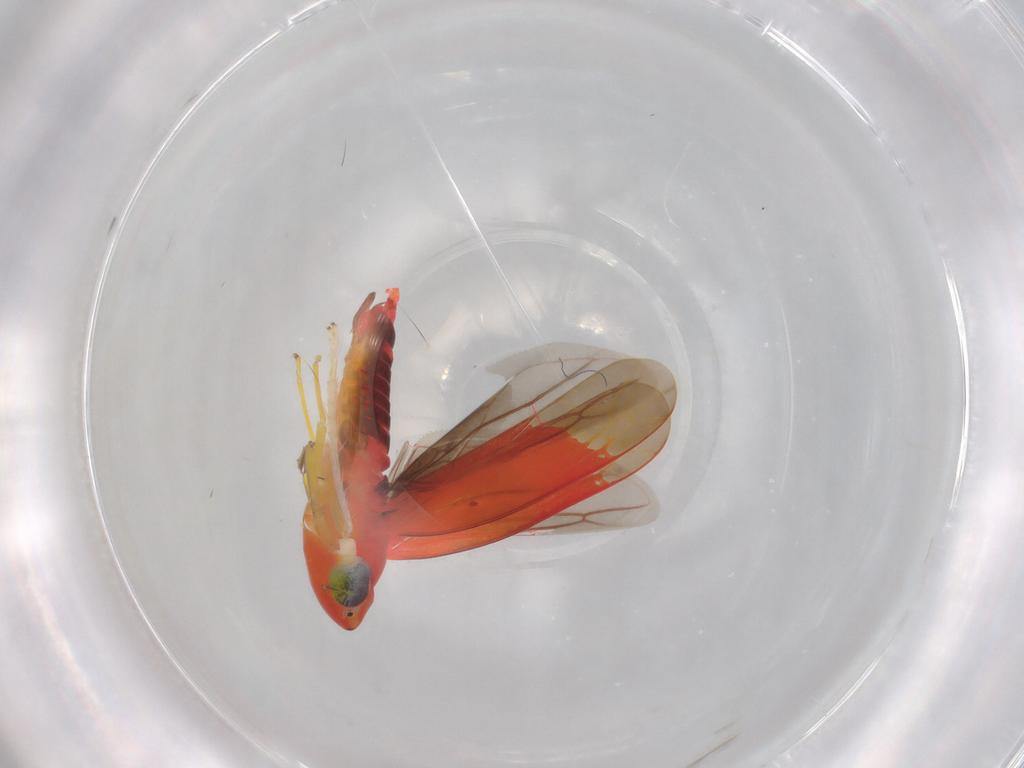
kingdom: Animalia
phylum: Arthropoda
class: Insecta
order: Hemiptera
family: Cicadellidae
